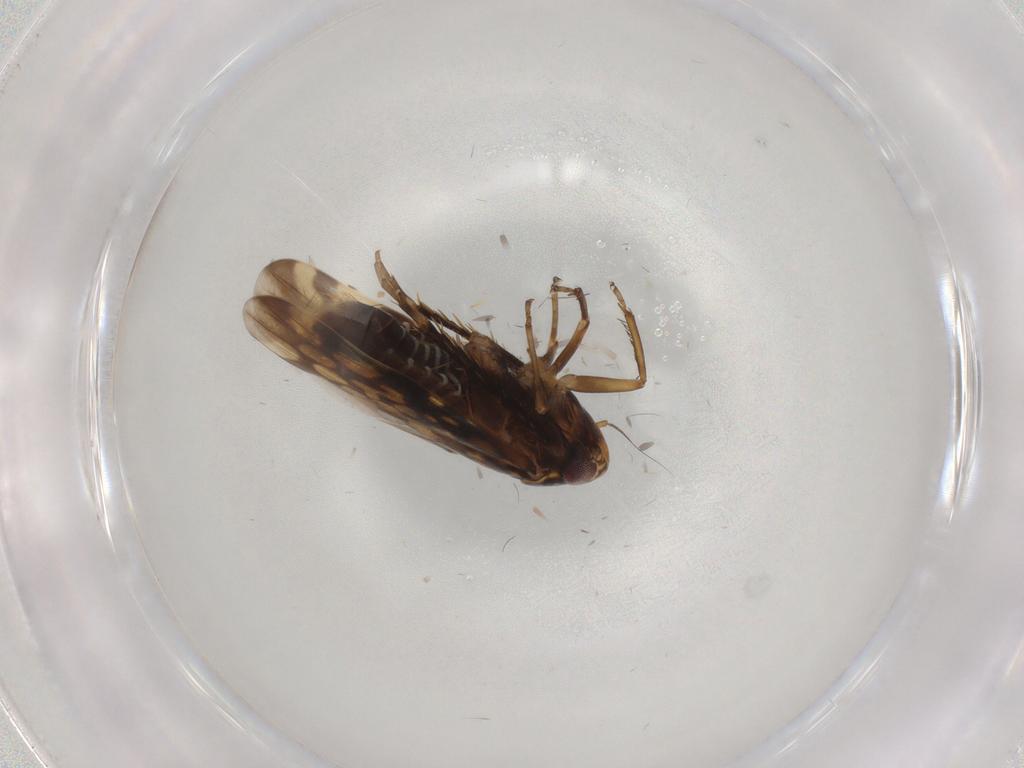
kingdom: Animalia
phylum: Arthropoda
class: Insecta
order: Hemiptera
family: Cicadellidae
